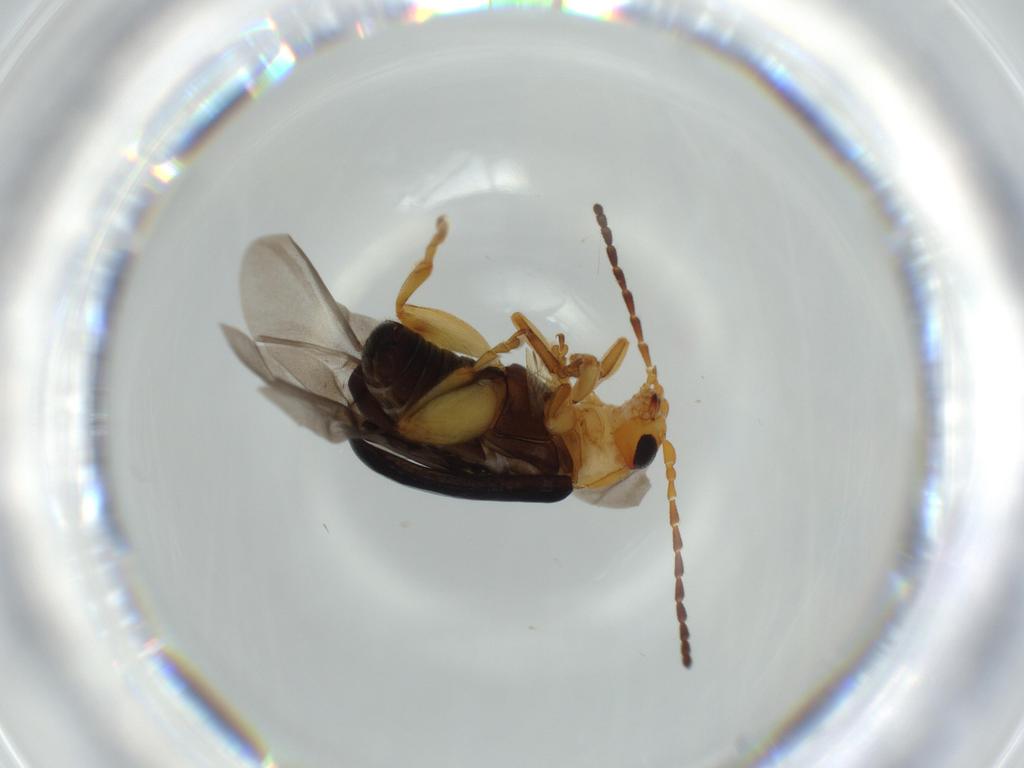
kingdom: Animalia
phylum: Arthropoda
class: Insecta
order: Coleoptera
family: Chrysomelidae
